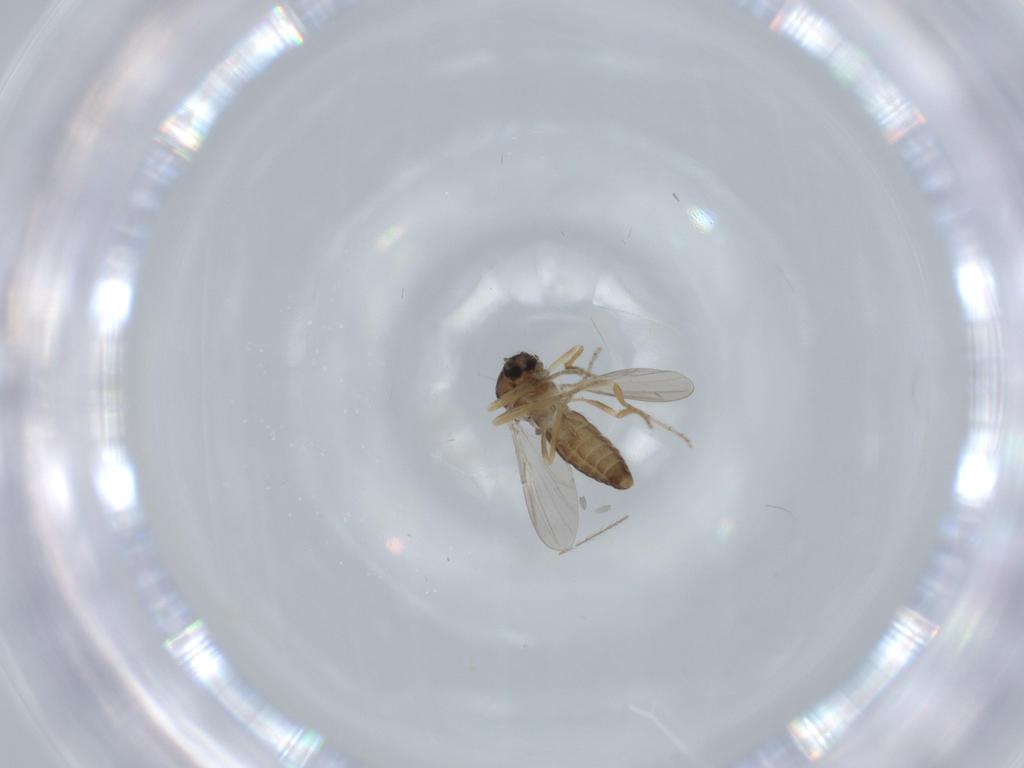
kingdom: Animalia
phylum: Arthropoda
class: Insecta
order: Diptera
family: Ceratopogonidae
